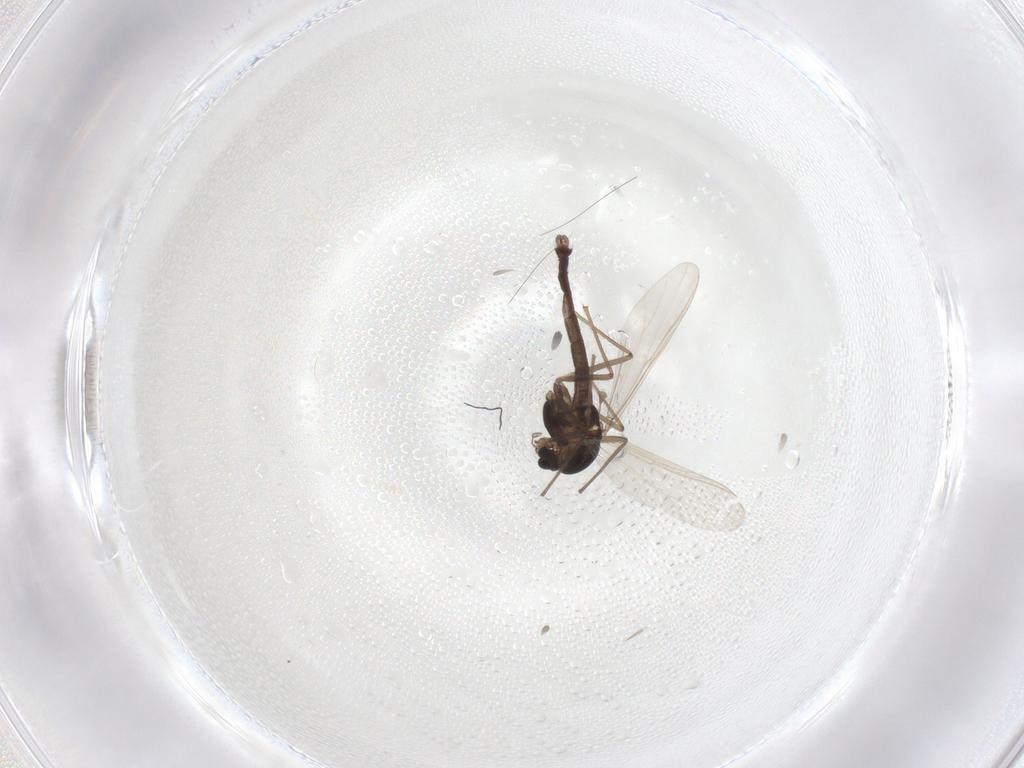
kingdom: Animalia
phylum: Arthropoda
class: Insecta
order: Diptera
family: Chironomidae
